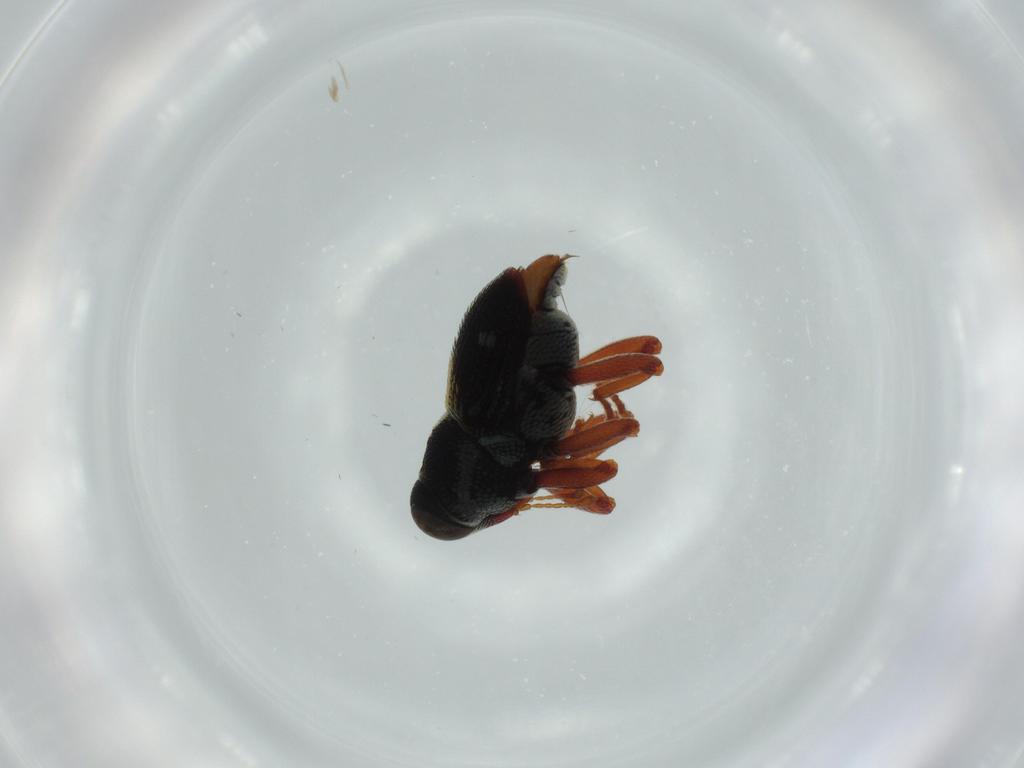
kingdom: Animalia
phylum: Arthropoda
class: Insecta
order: Coleoptera
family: Curculionidae
